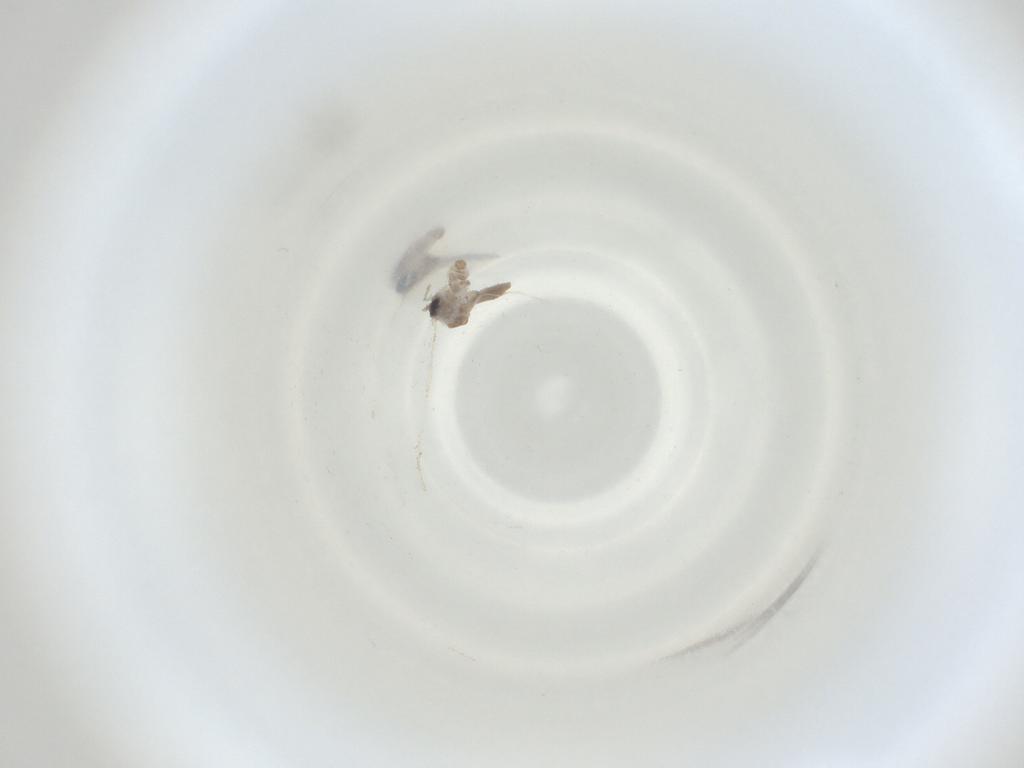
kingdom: Animalia
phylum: Arthropoda
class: Insecta
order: Diptera
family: Cecidomyiidae
